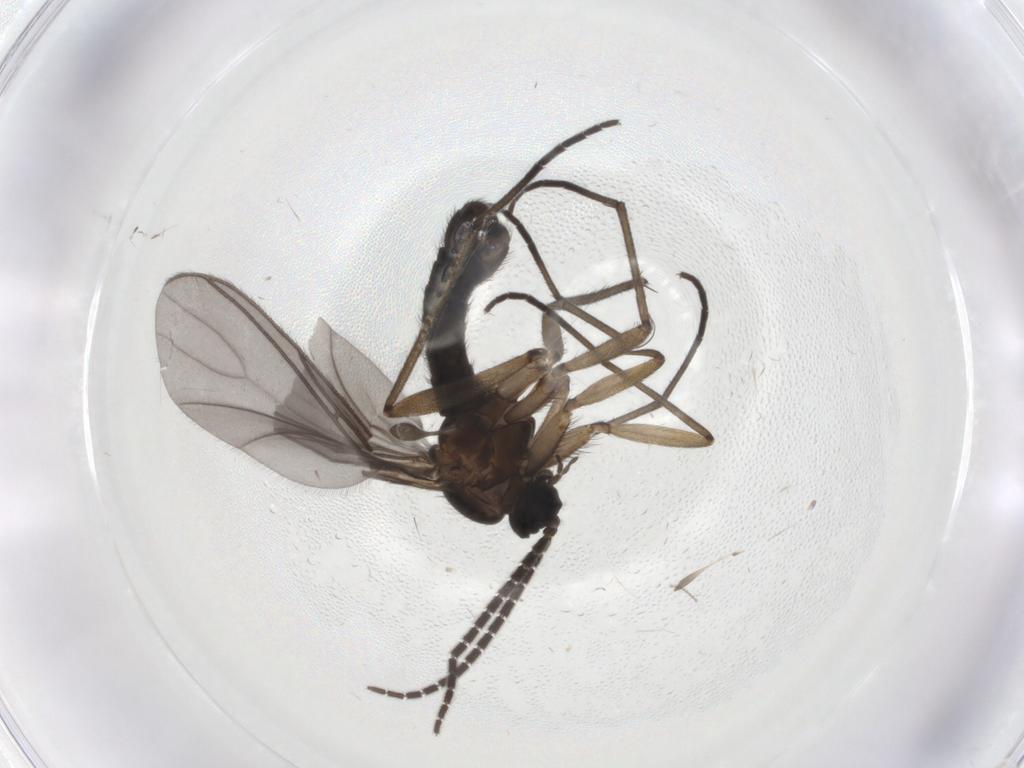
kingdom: Animalia
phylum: Arthropoda
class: Insecta
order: Diptera
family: Sciaridae
